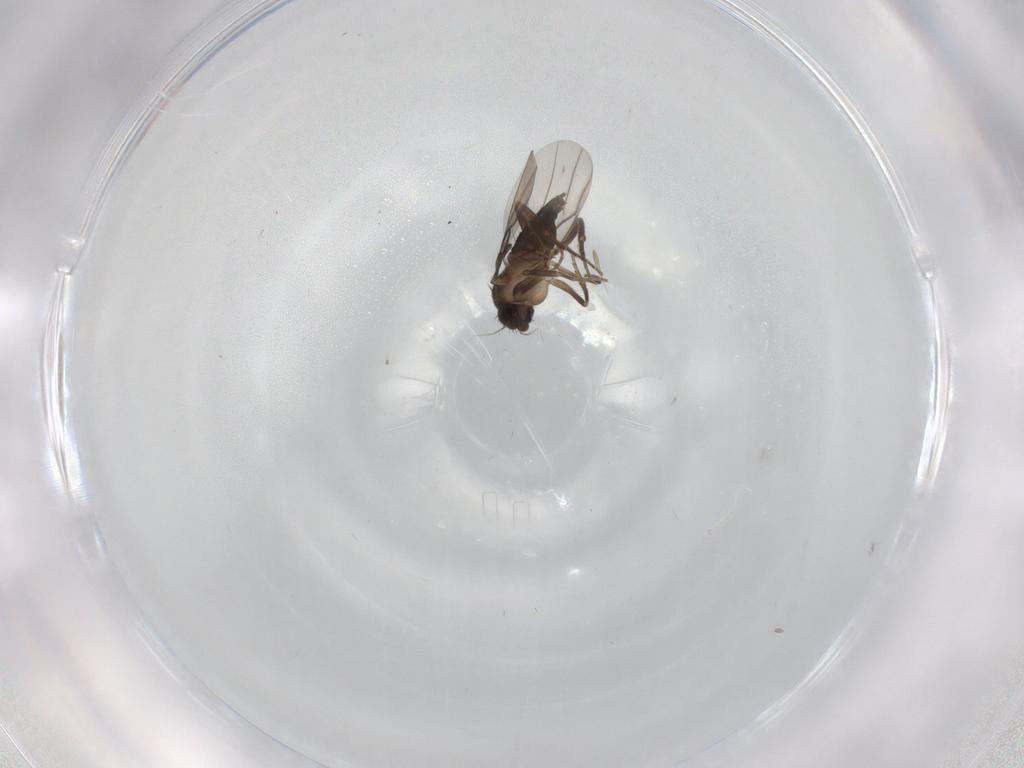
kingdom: Animalia
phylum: Arthropoda
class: Insecta
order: Diptera
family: Phoridae
